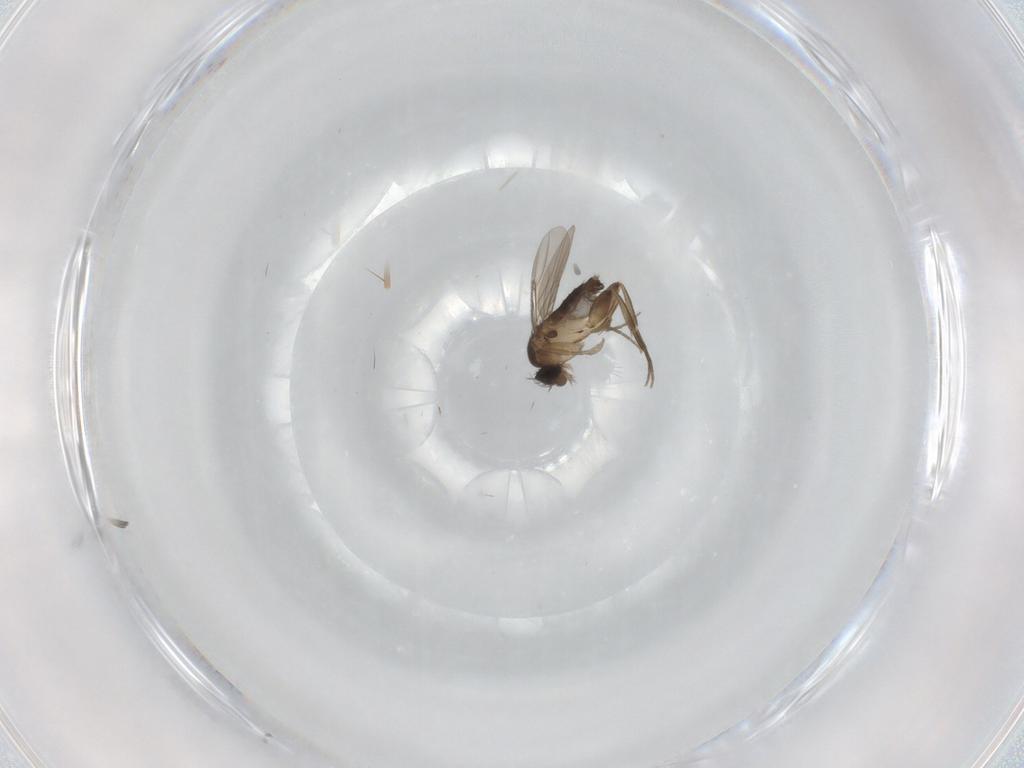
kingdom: Animalia
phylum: Arthropoda
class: Insecta
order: Diptera
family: Phoridae
